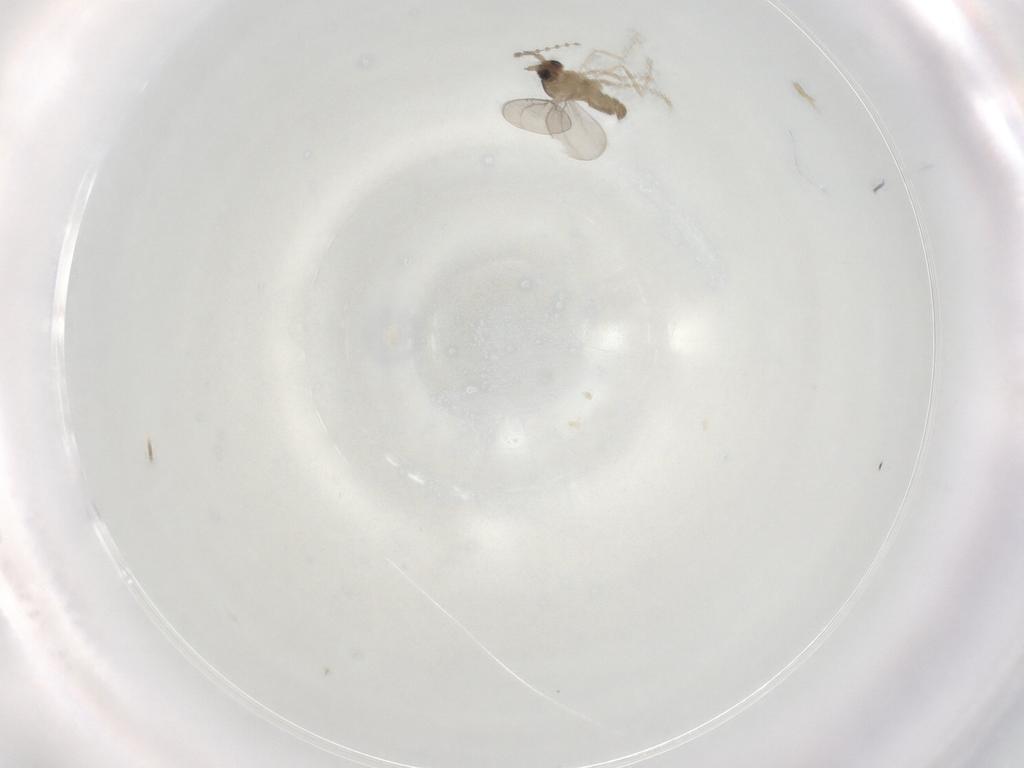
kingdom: Animalia
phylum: Arthropoda
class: Insecta
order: Diptera
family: Cecidomyiidae
